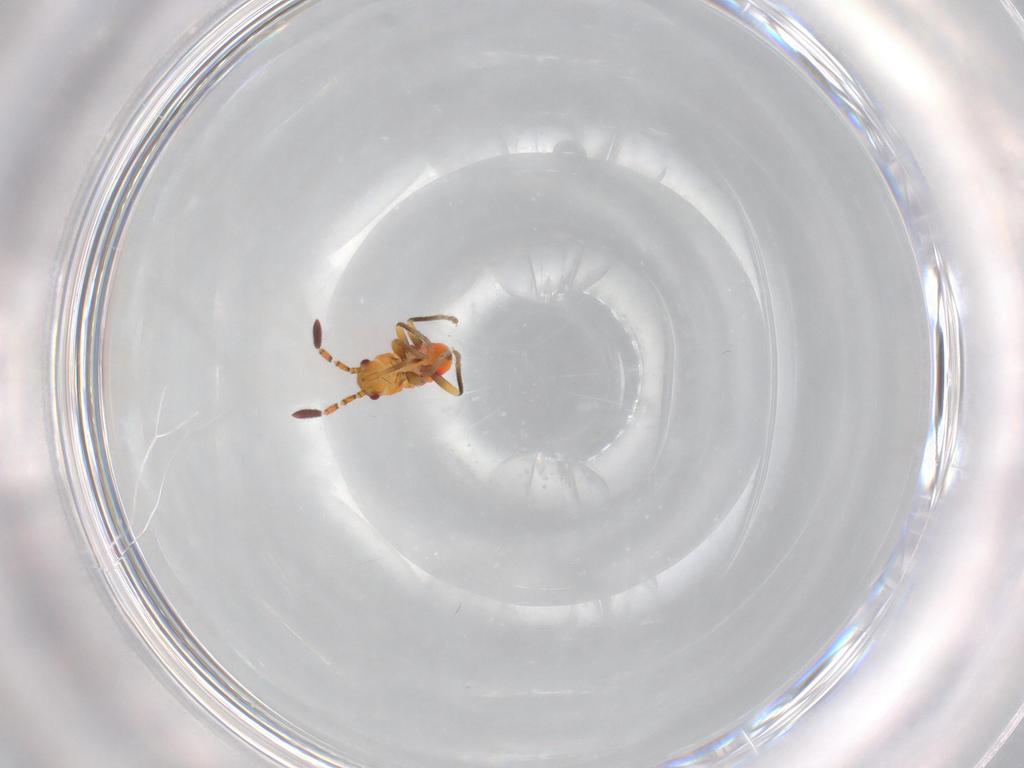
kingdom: Animalia
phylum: Arthropoda
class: Insecta
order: Hemiptera
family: Rhyparochromidae
